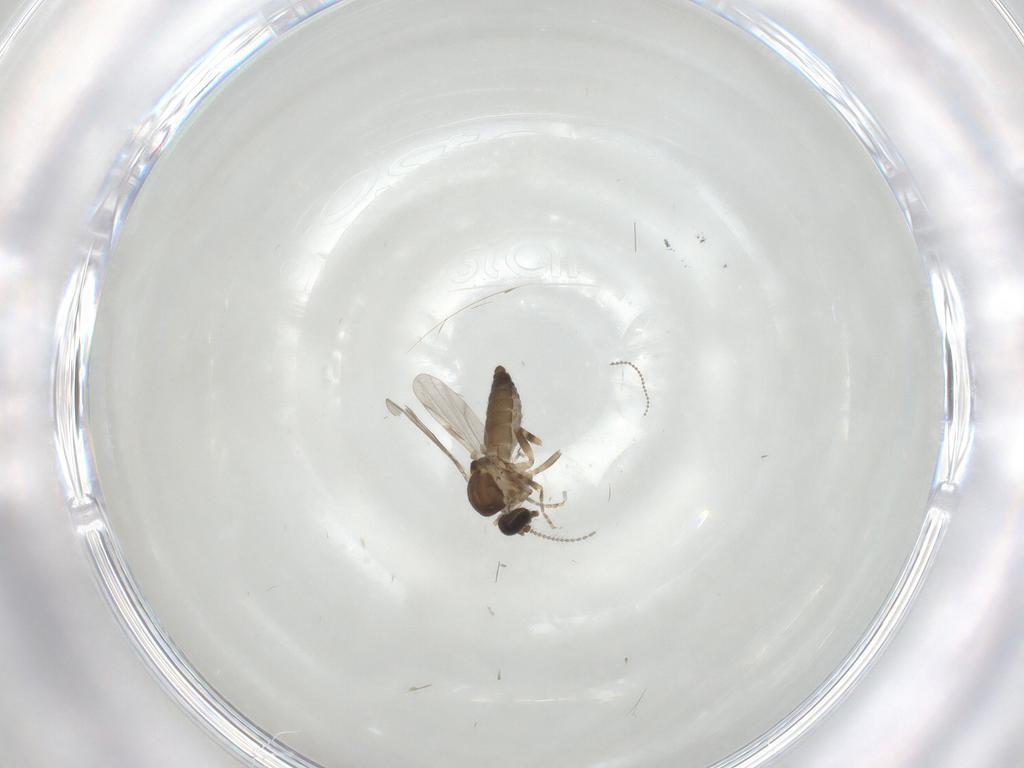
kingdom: Animalia
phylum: Arthropoda
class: Insecta
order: Diptera
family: Ceratopogonidae
